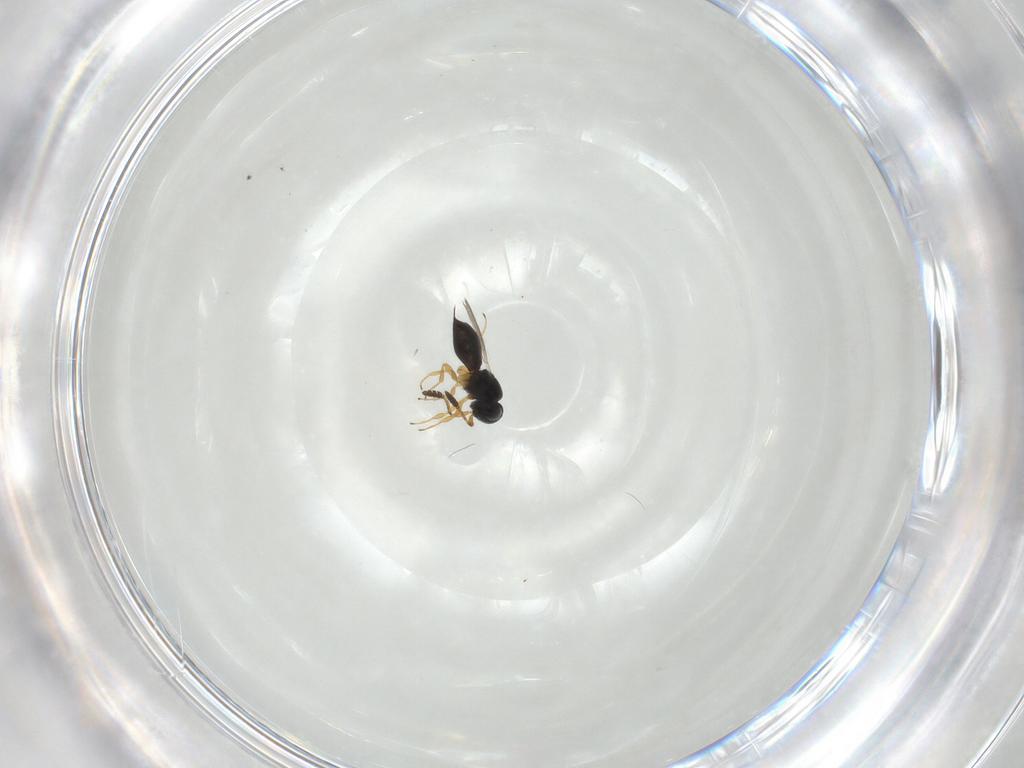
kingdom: Animalia
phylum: Arthropoda
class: Insecta
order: Hymenoptera
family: Scelionidae
